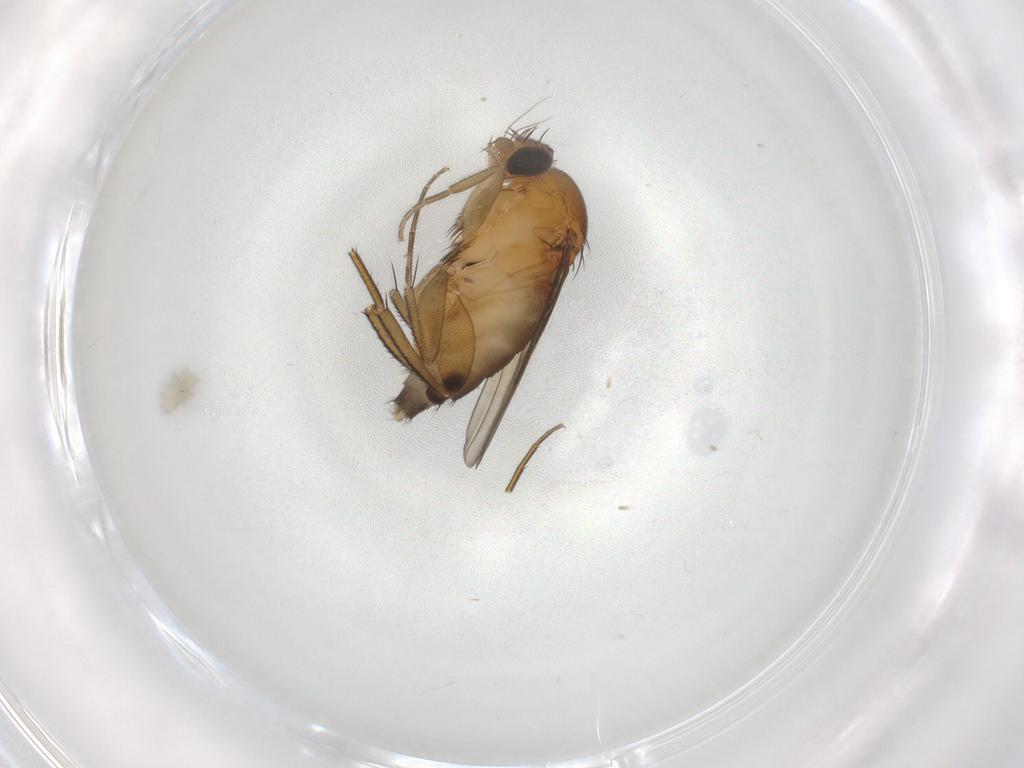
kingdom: Animalia
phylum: Arthropoda
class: Insecta
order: Diptera
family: Phoridae
